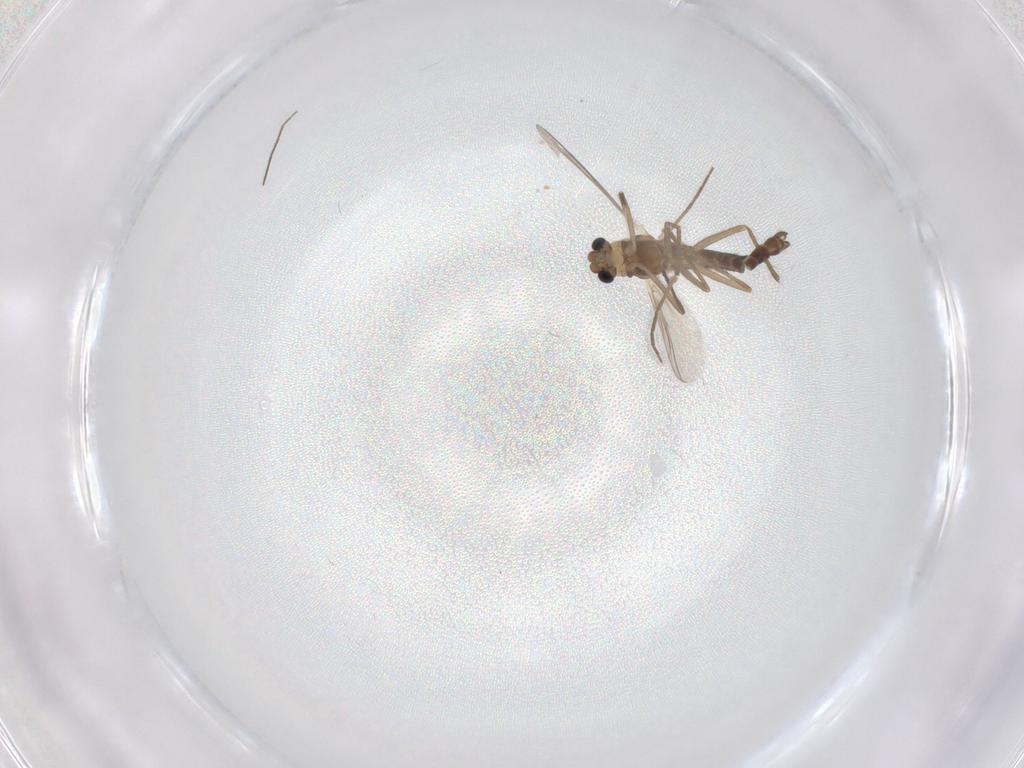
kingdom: Animalia
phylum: Arthropoda
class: Insecta
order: Diptera
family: Chironomidae
